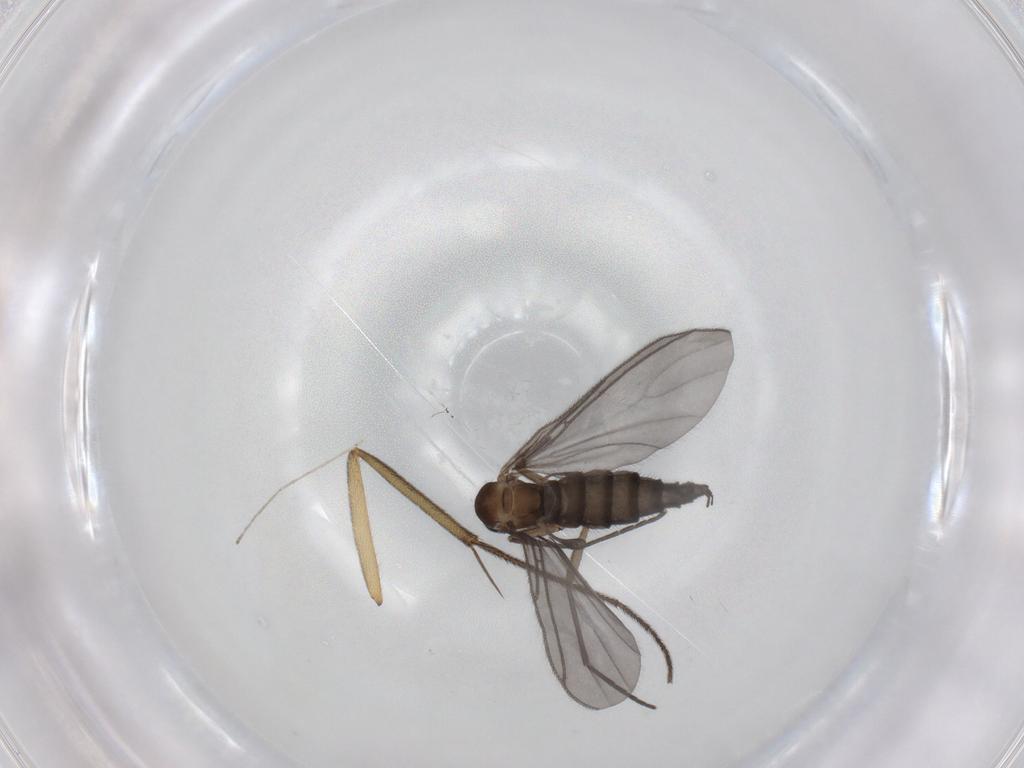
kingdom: Animalia
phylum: Arthropoda
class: Insecta
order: Diptera
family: Sciaridae
